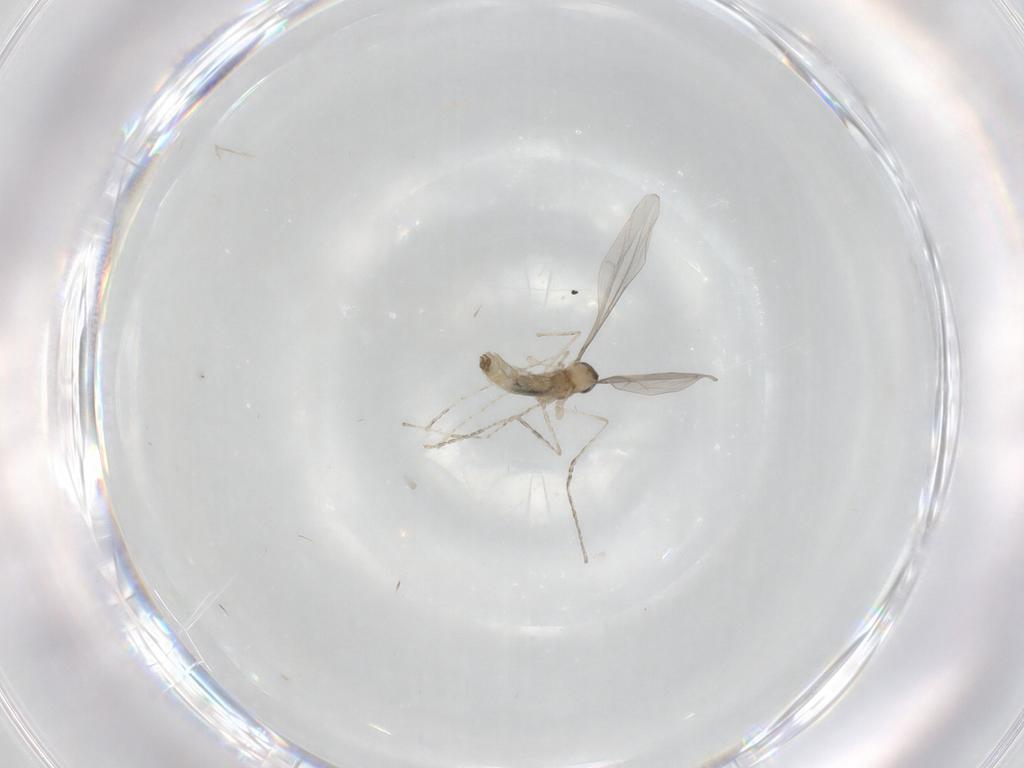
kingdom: Animalia
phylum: Arthropoda
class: Insecta
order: Diptera
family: Cecidomyiidae
